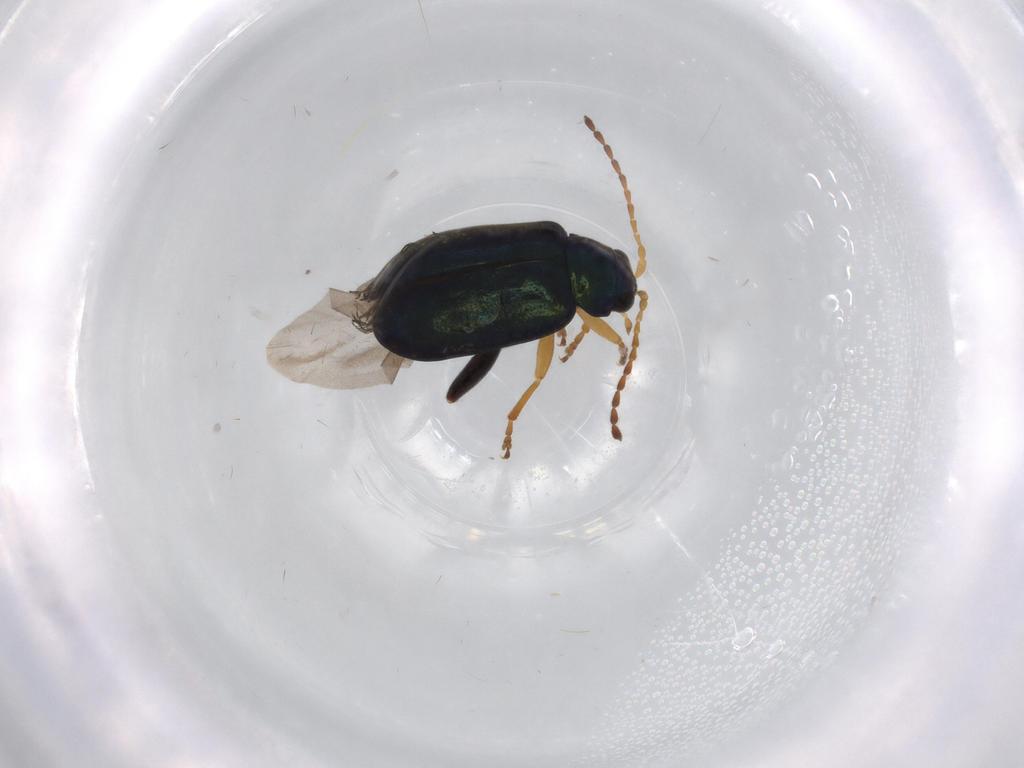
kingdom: Animalia
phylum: Arthropoda
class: Insecta
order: Coleoptera
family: Chrysomelidae
